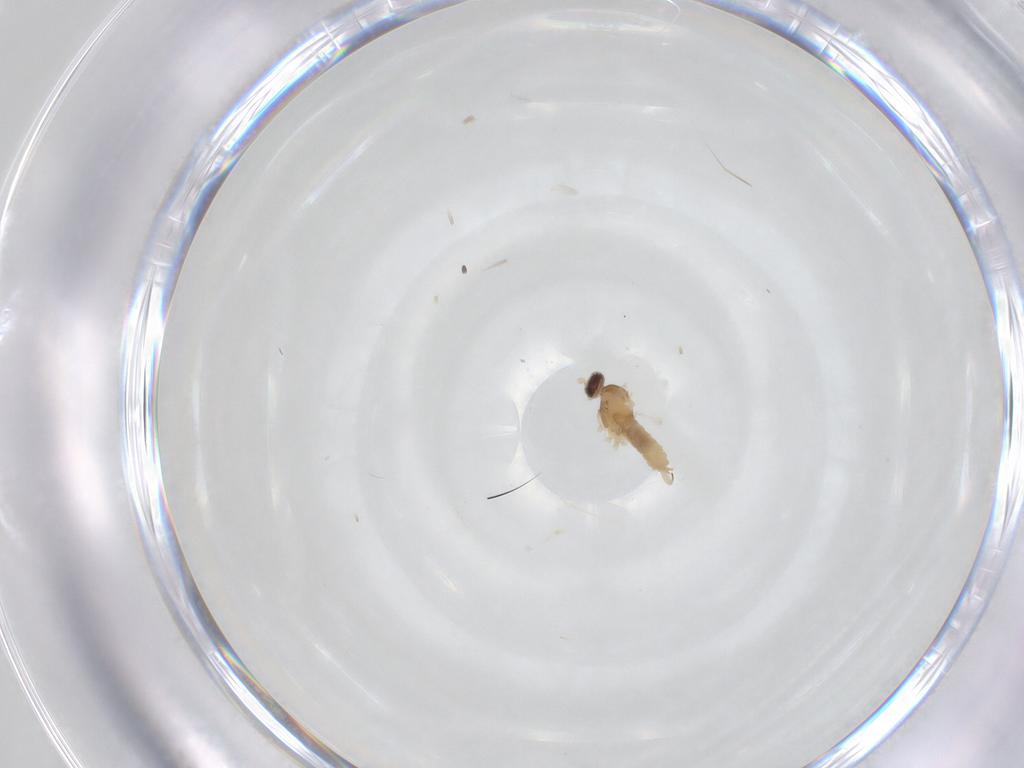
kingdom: Animalia
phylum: Arthropoda
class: Insecta
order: Diptera
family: Cecidomyiidae
